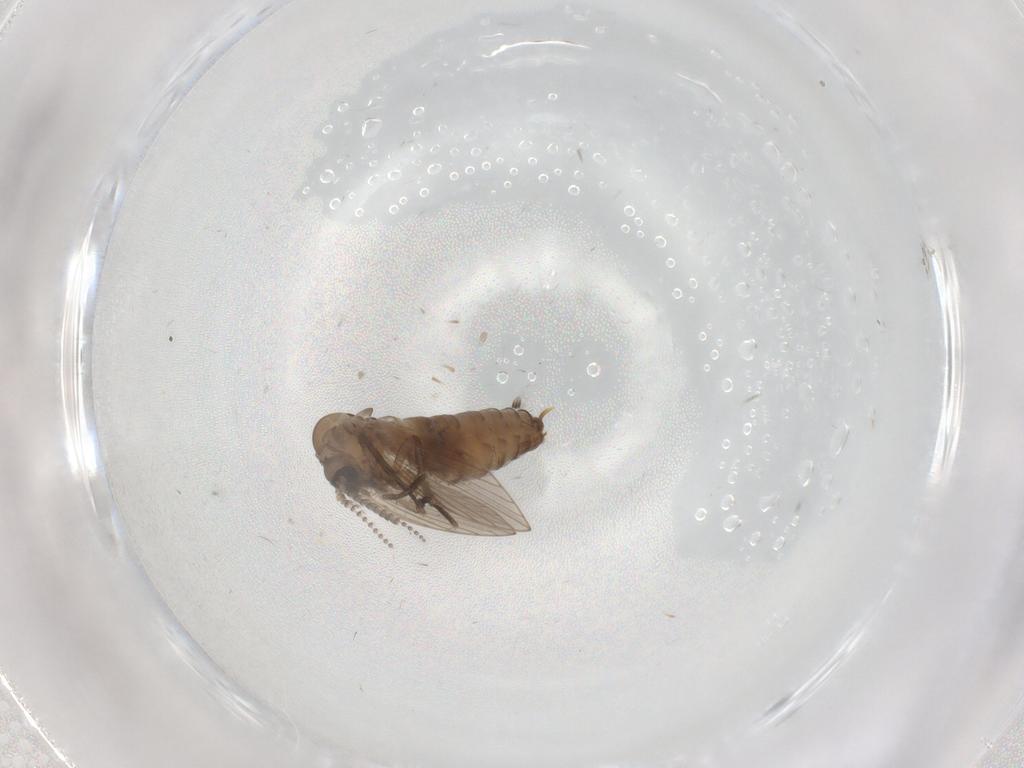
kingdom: Animalia
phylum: Arthropoda
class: Insecta
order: Diptera
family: Psychodidae
